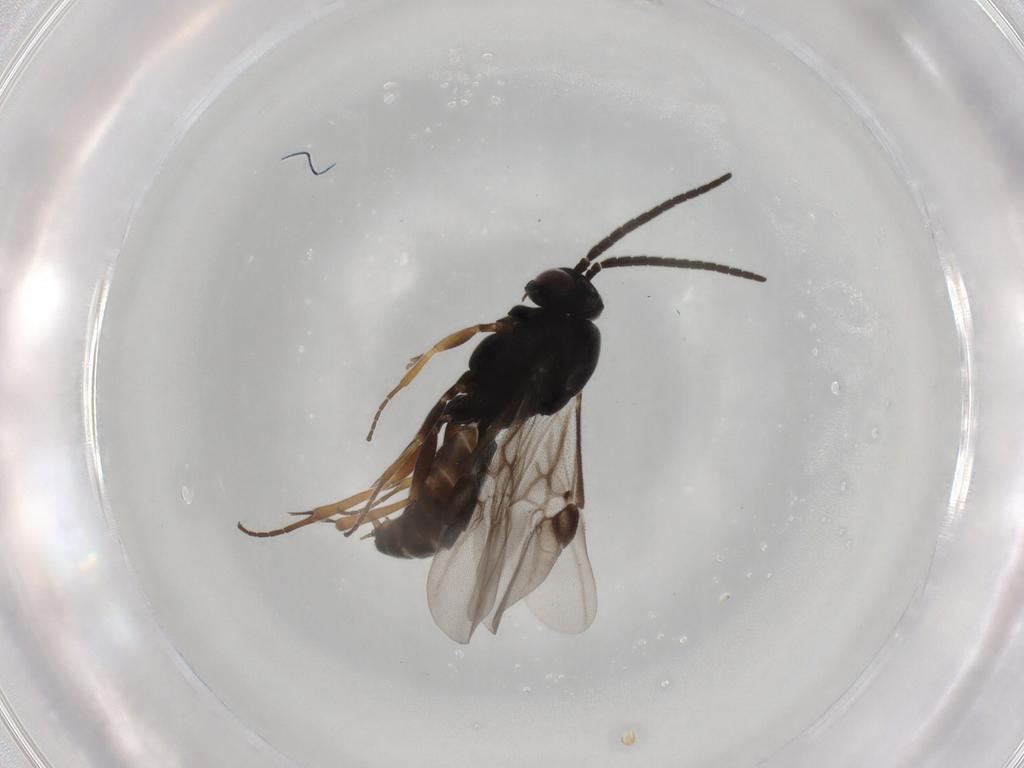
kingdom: Animalia
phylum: Arthropoda
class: Insecta
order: Hymenoptera
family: Braconidae
